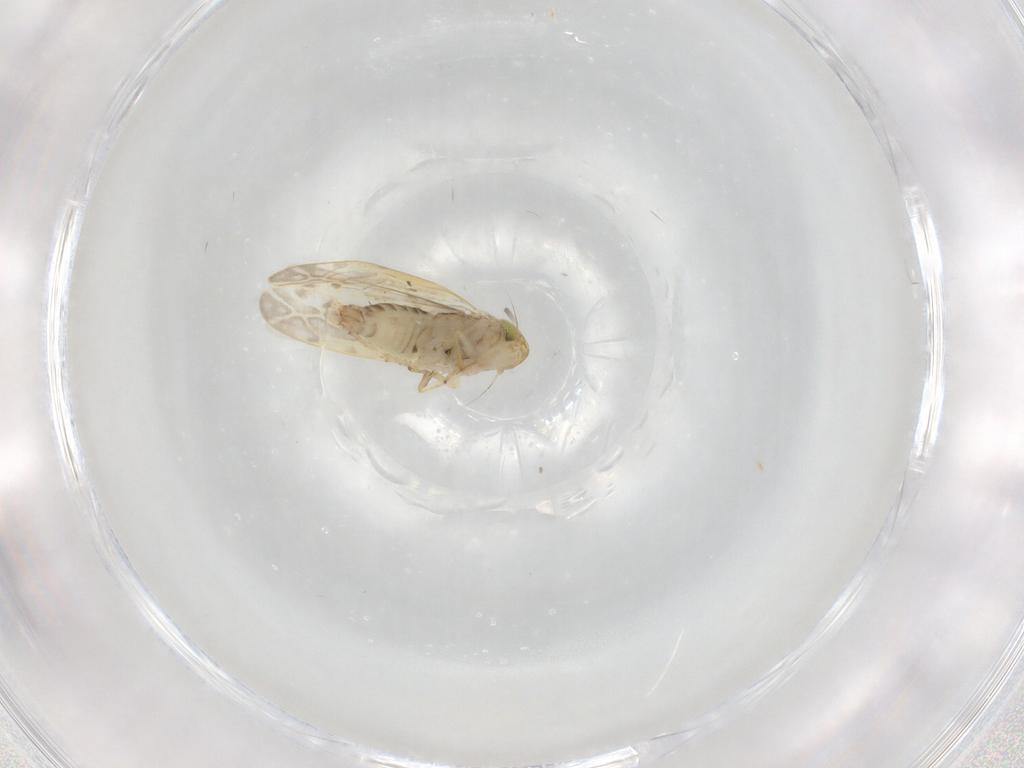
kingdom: Animalia
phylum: Arthropoda
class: Insecta
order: Hemiptera
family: Cicadellidae
